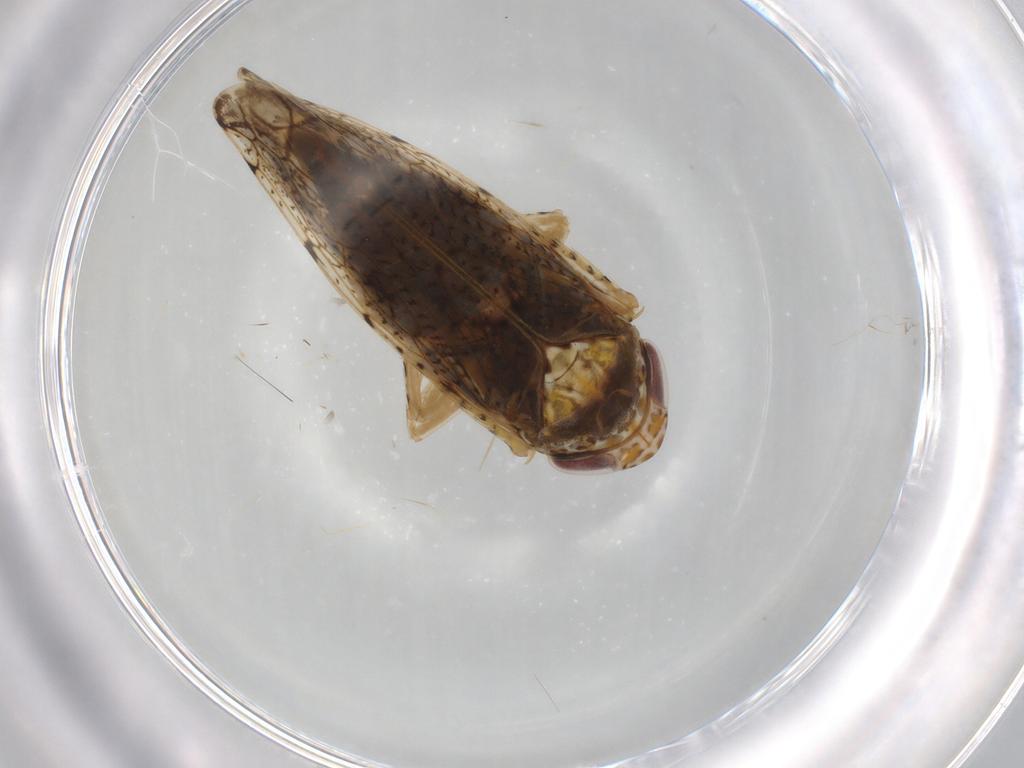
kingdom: Animalia
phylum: Arthropoda
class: Insecta
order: Hemiptera
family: Cicadellidae
